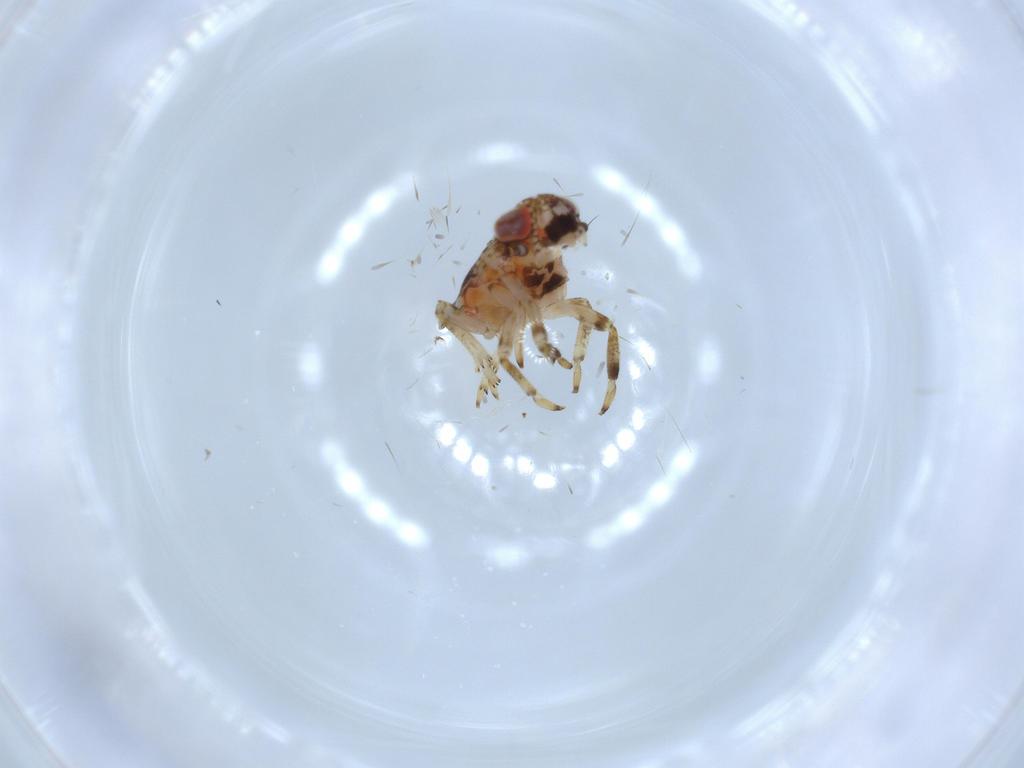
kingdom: Animalia
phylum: Arthropoda
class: Insecta
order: Hemiptera
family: Issidae
